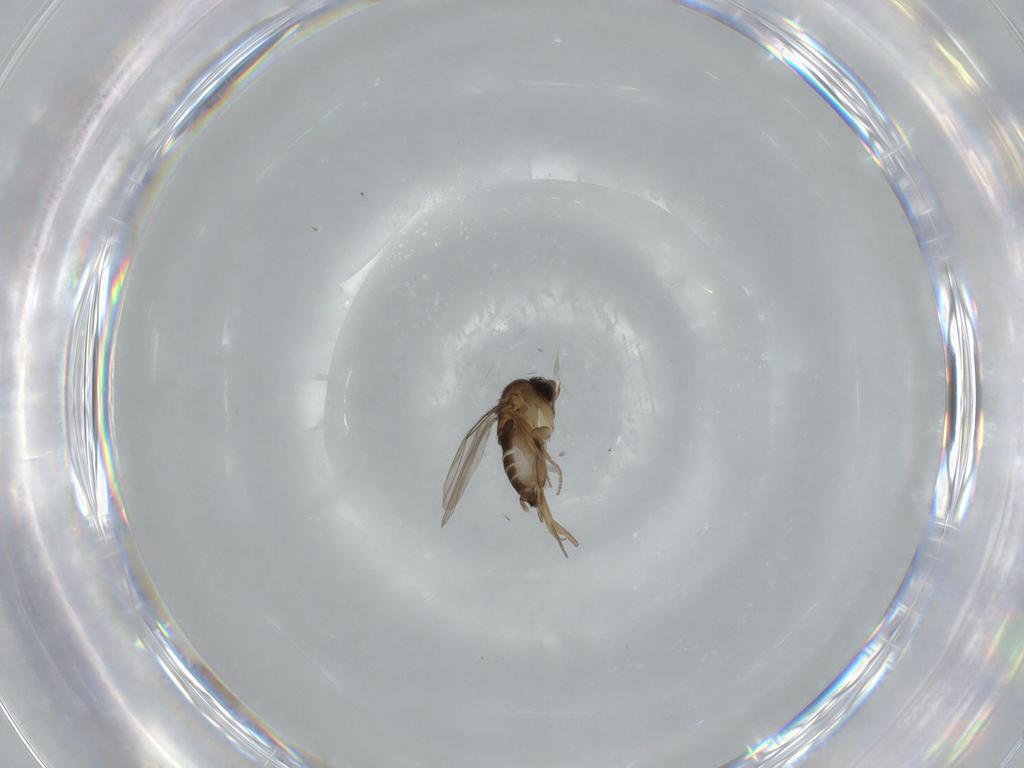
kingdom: Animalia
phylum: Arthropoda
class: Insecta
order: Diptera
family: Phoridae
